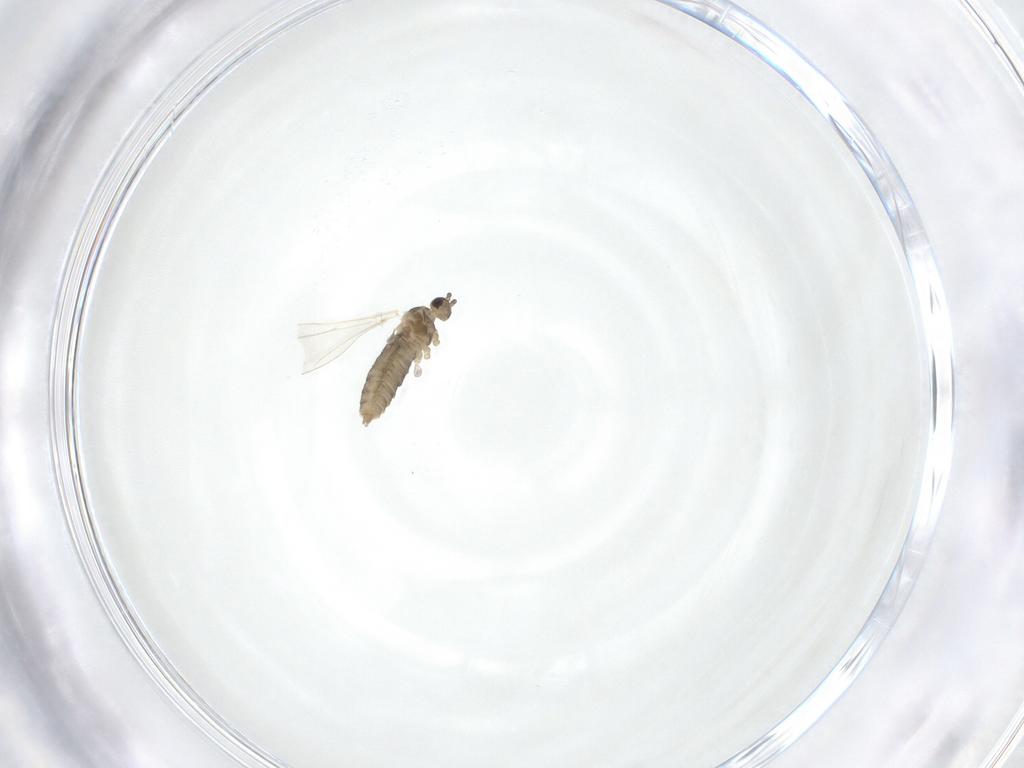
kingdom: Animalia
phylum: Arthropoda
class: Insecta
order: Diptera
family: Cecidomyiidae
